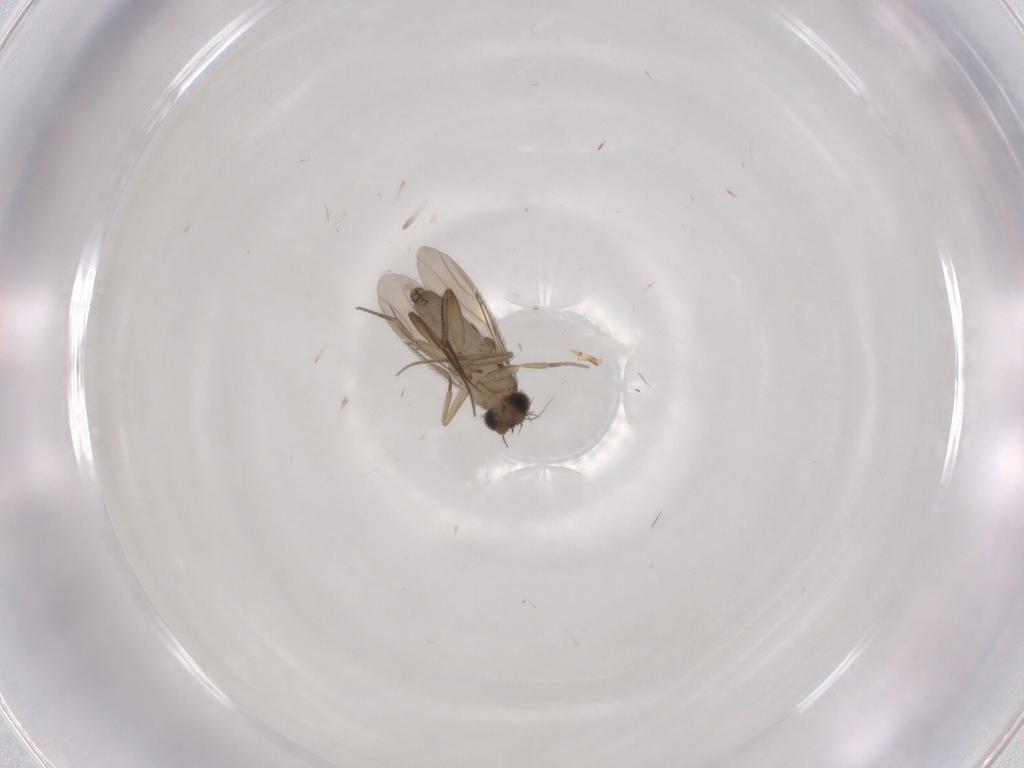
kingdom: Animalia
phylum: Arthropoda
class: Insecta
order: Diptera
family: Phoridae
